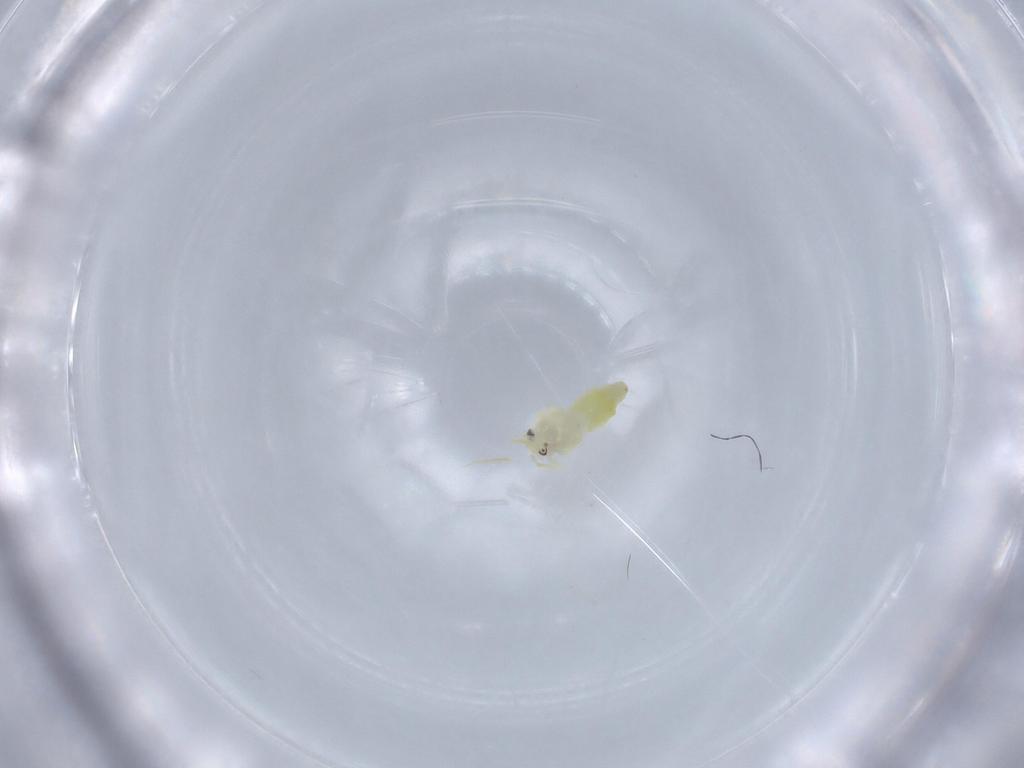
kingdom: Animalia
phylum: Arthropoda
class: Insecta
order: Hemiptera
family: Aleyrodidae
